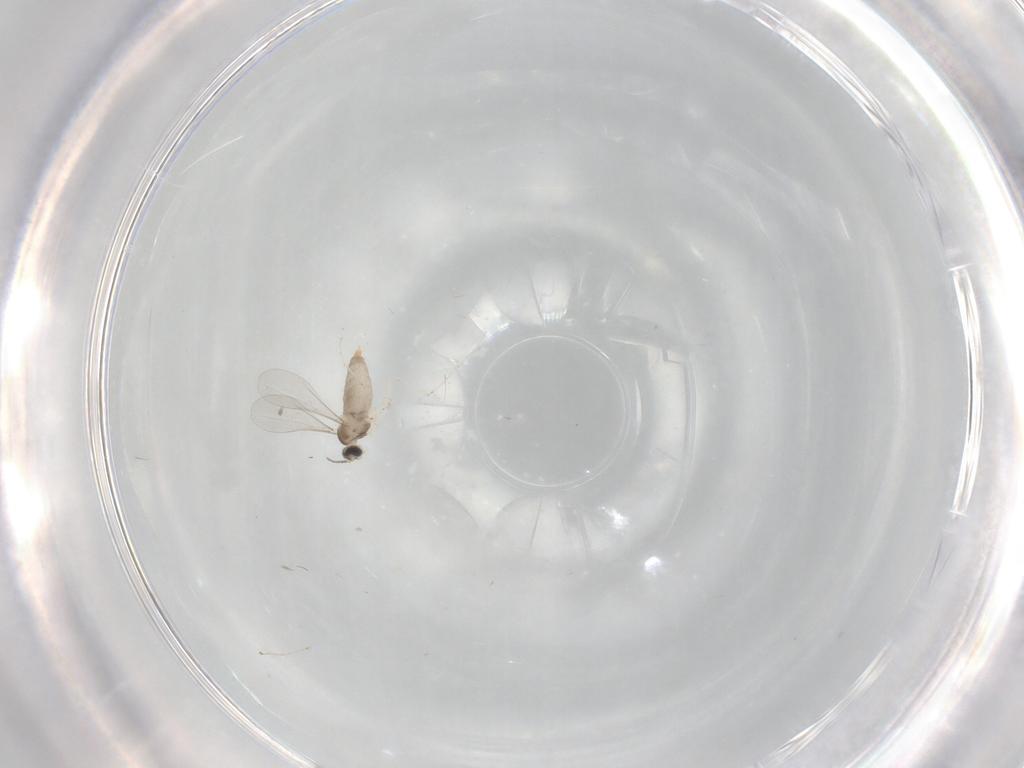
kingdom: Animalia
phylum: Arthropoda
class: Insecta
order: Diptera
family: Cecidomyiidae
